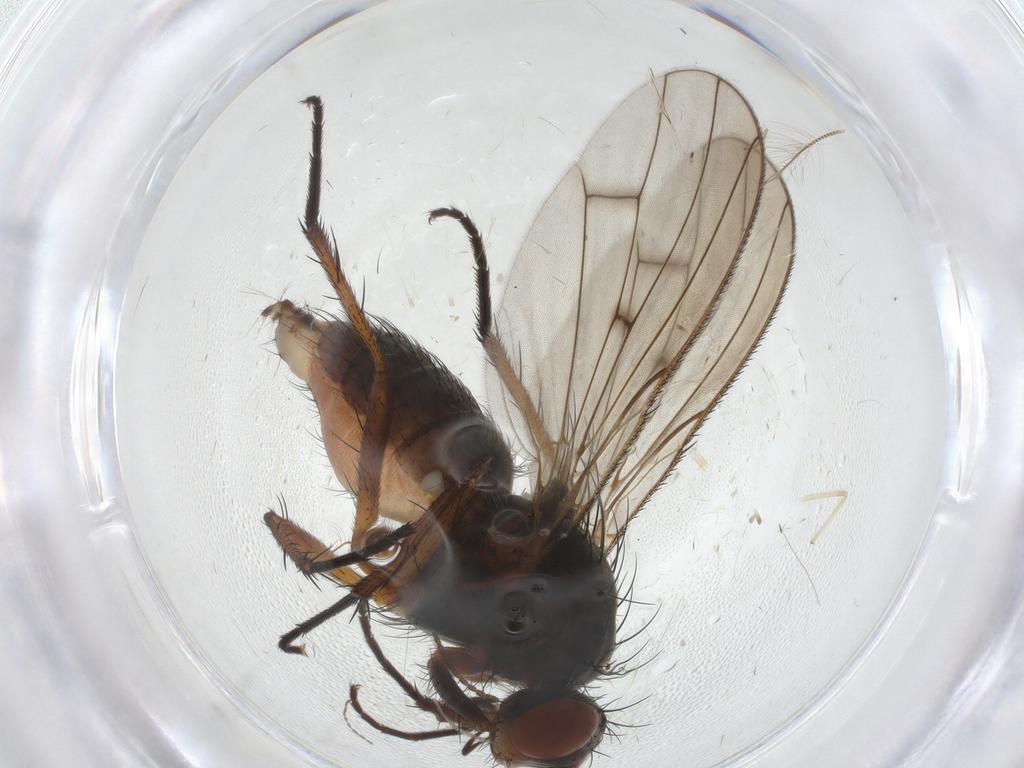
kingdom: Animalia
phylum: Arthropoda
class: Insecta
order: Diptera
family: Anthomyiidae
